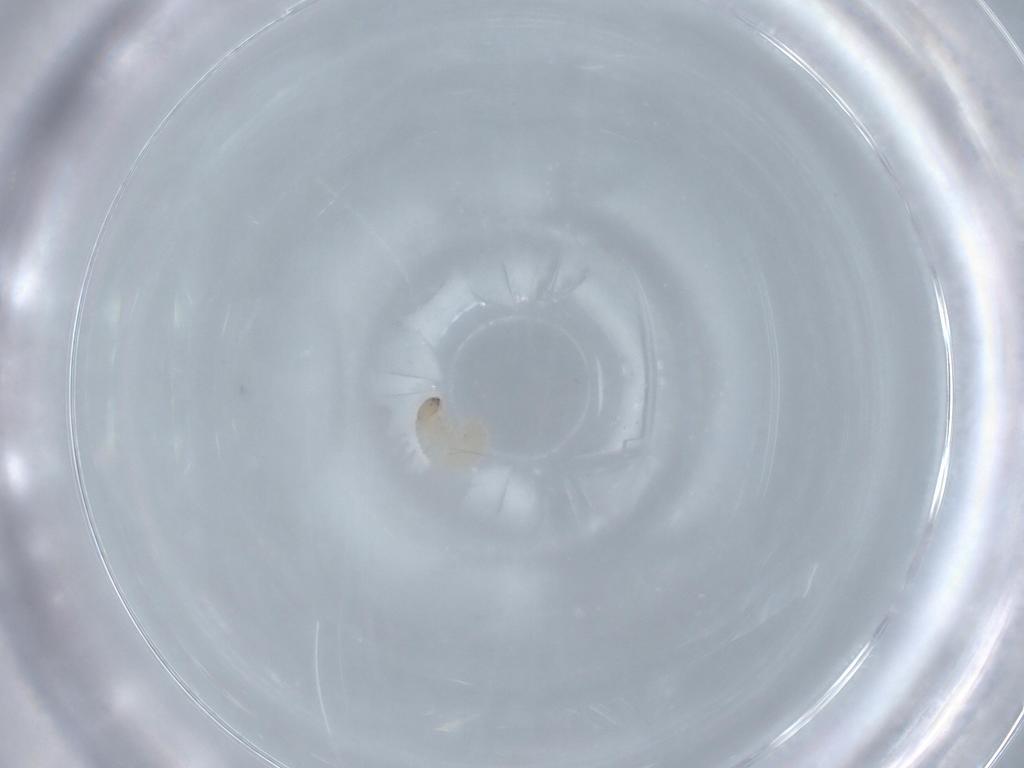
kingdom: Animalia
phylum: Arthropoda
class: Insecta
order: Coleoptera
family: Chrysomelidae
